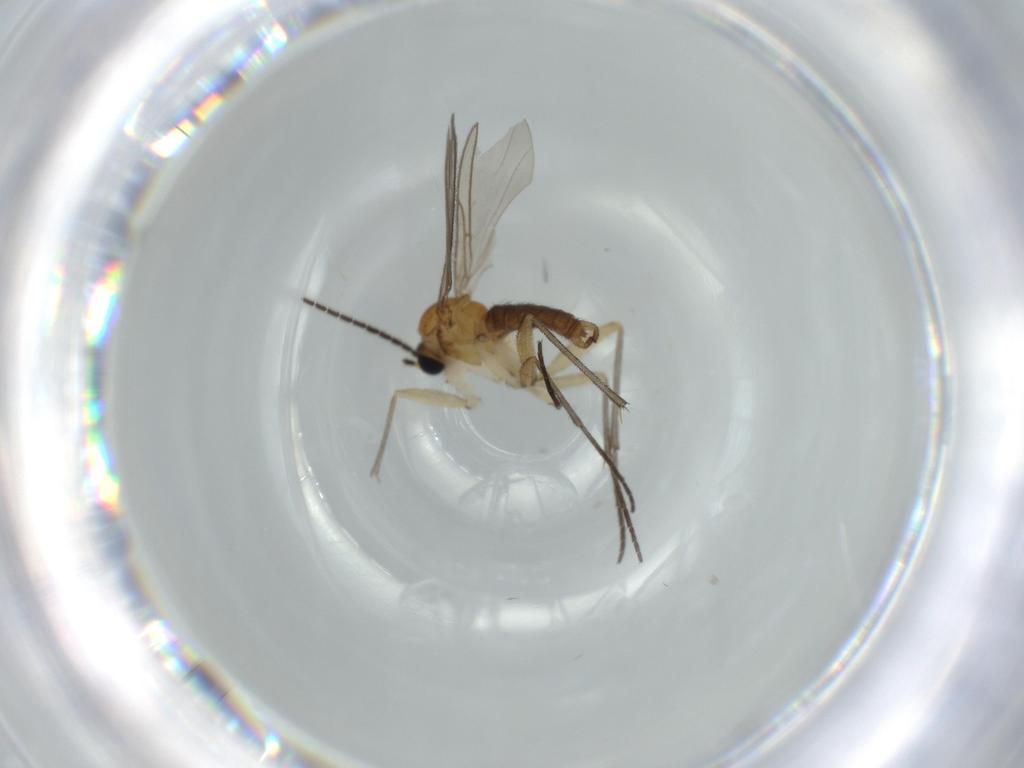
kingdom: Animalia
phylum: Arthropoda
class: Insecta
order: Diptera
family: Sciaridae
